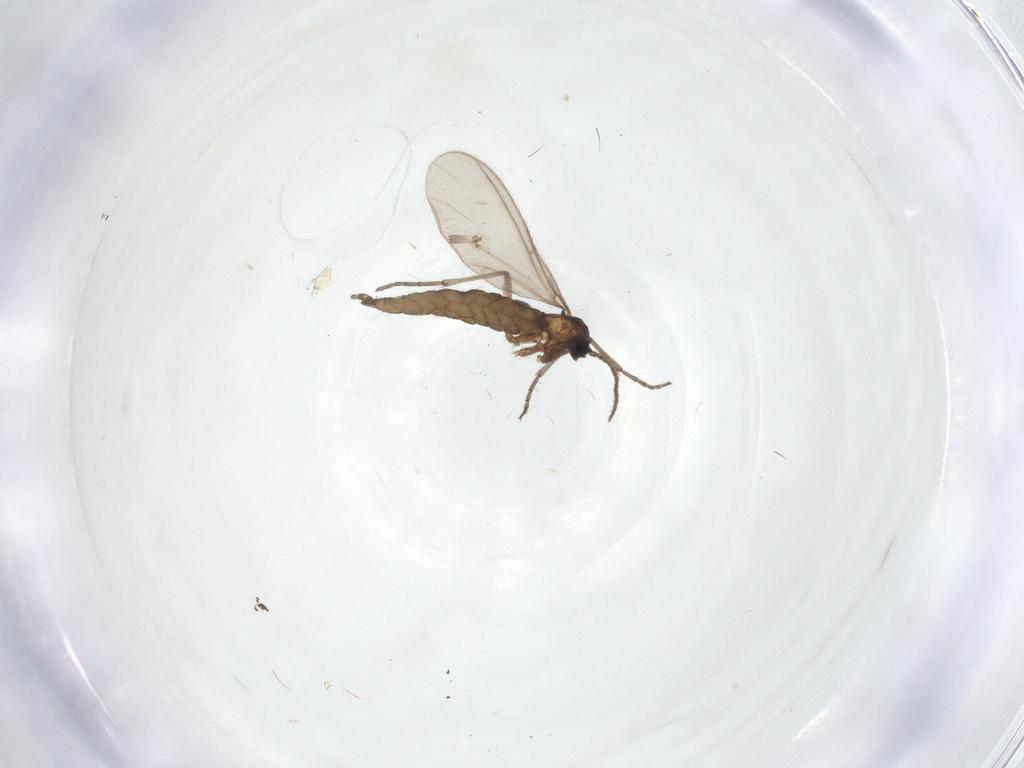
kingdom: Animalia
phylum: Arthropoda
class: Insecta
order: Diptera
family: Sciaridae
